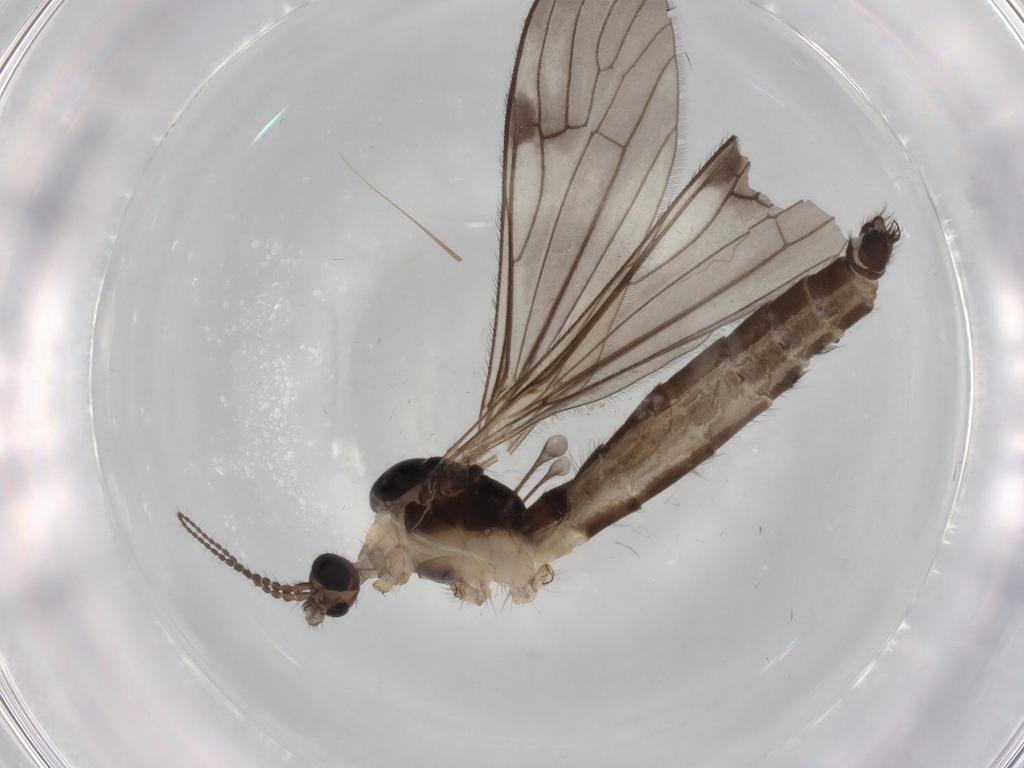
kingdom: Animalia
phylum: Arthropoda
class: Insecta
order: Diptera
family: Limoniidae
